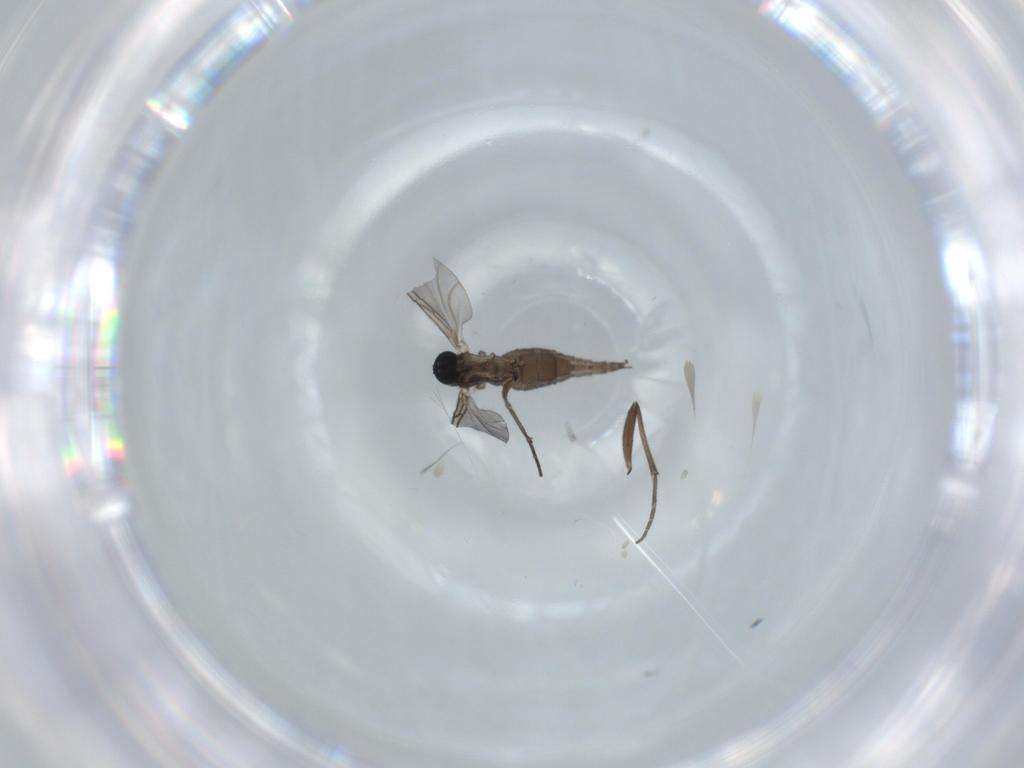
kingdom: Animalia
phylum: Arthropoda
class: Insecta
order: Diptera
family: Sciaridae
